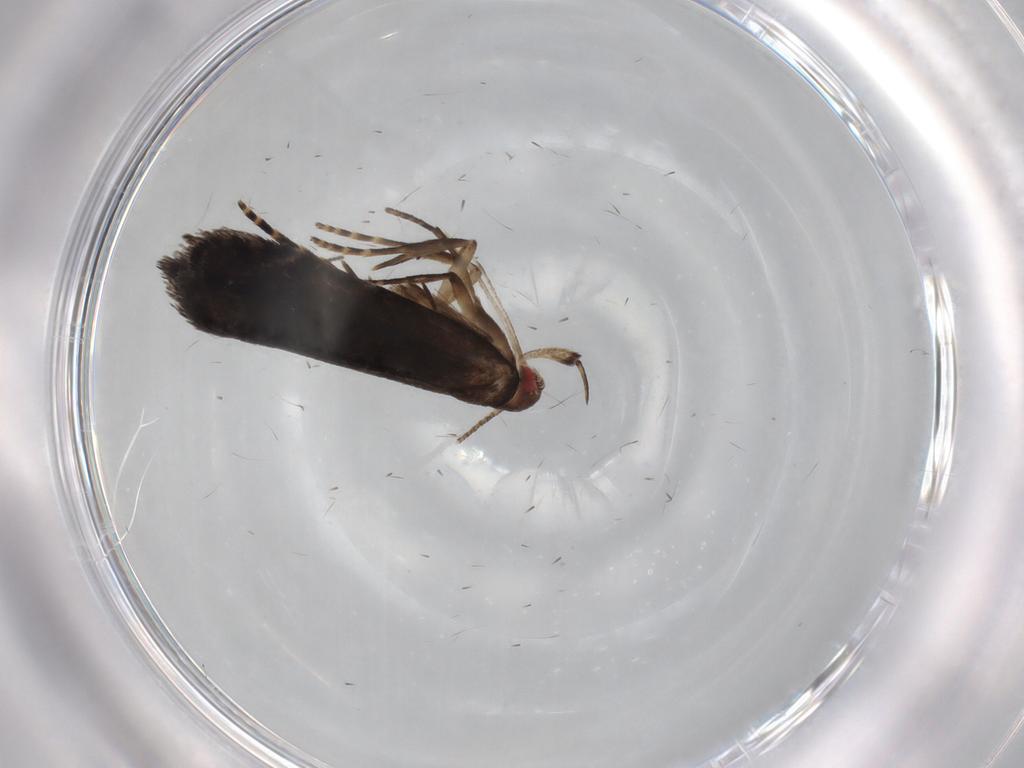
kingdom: Animalia
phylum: Arthropoda
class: Insecta
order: Lepidoptera
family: Gelechiidae
